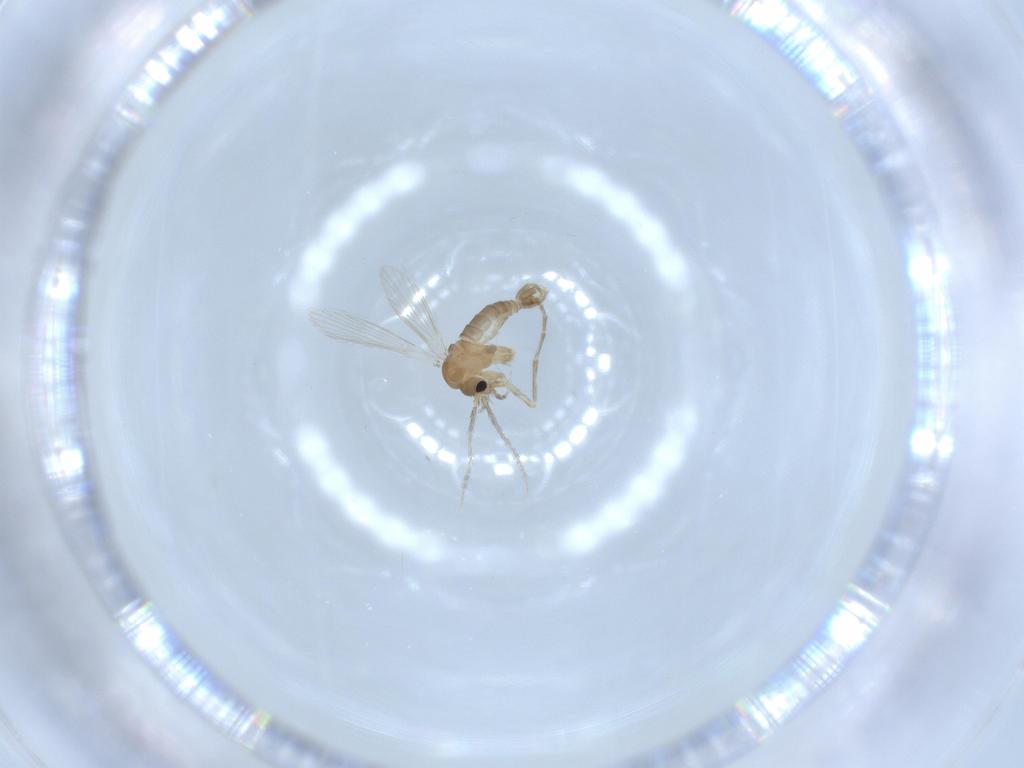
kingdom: Animalia
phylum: Arthropoda
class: Insecta
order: Diptera
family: Psychodidae
